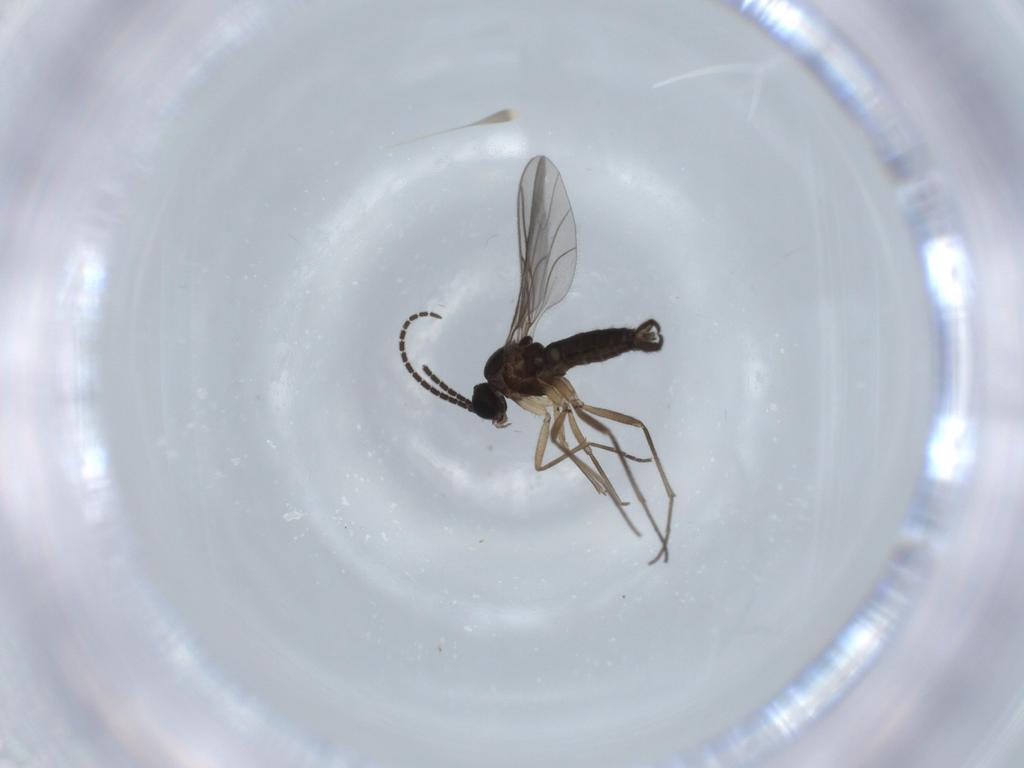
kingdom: Animalia
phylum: Arthropoda
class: Insecta
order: Diptera
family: Sciaridae
